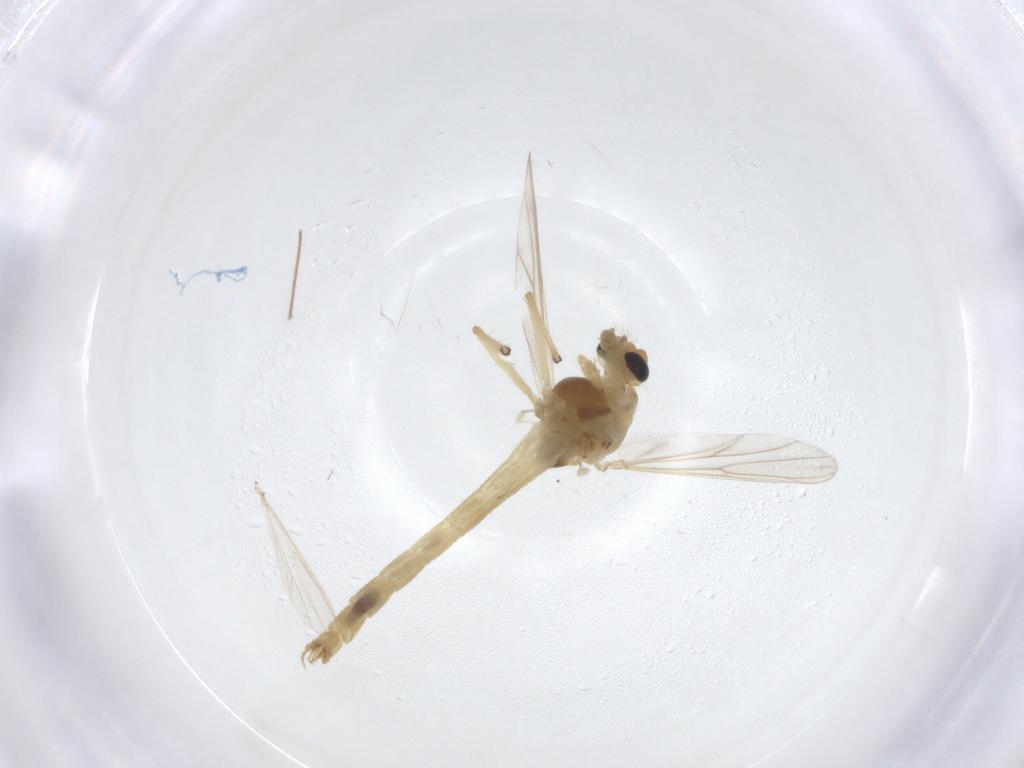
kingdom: Animalia
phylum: Arthropoda
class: Insecta
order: Diptera
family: Chironomidae
